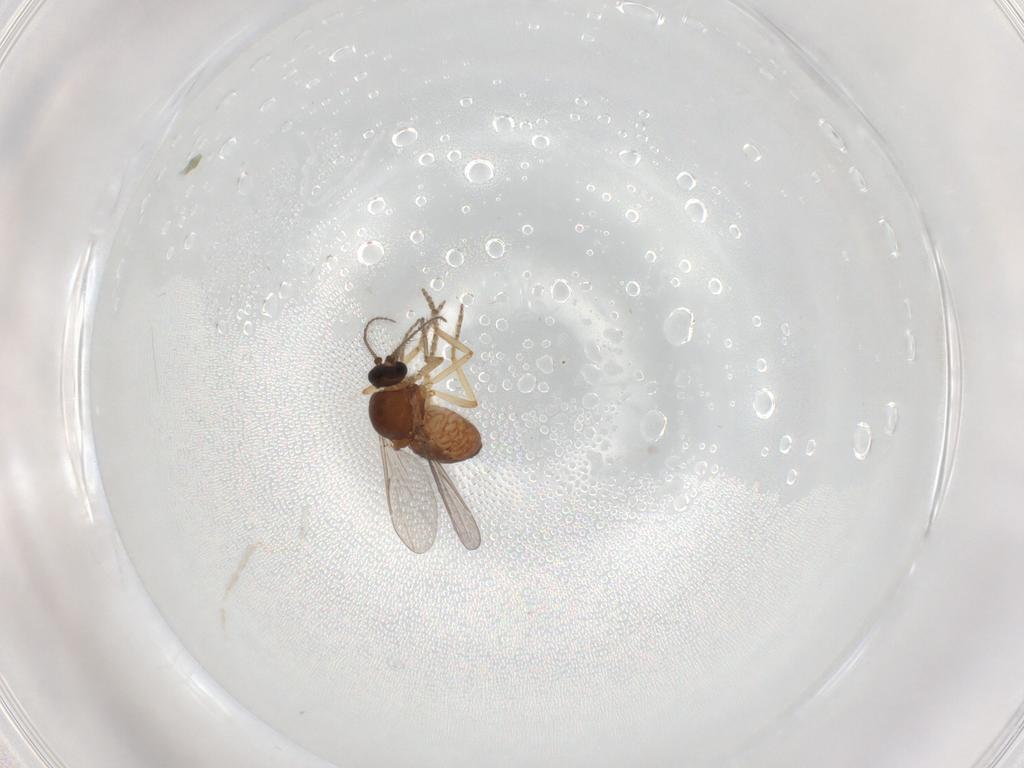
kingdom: Animalia
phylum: Arthropoda
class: Insecta
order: Diptera
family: Ceratopogonidae
